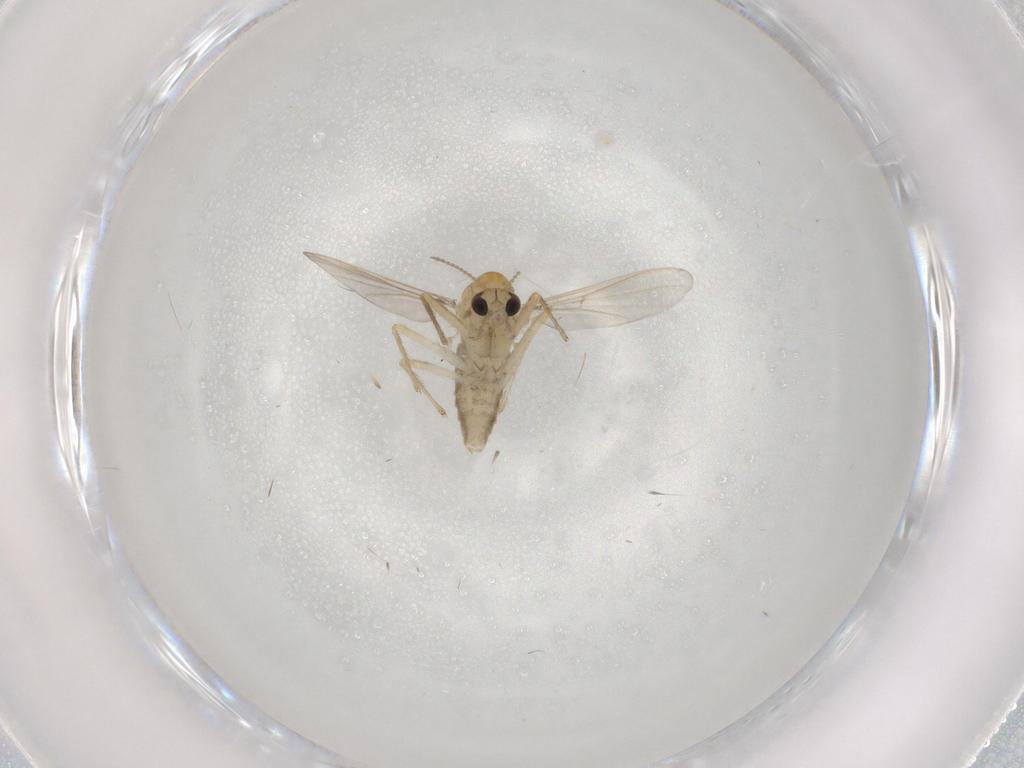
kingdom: Animalia
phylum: Arthropoda
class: Insecta
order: Diptera
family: Chironomidae
